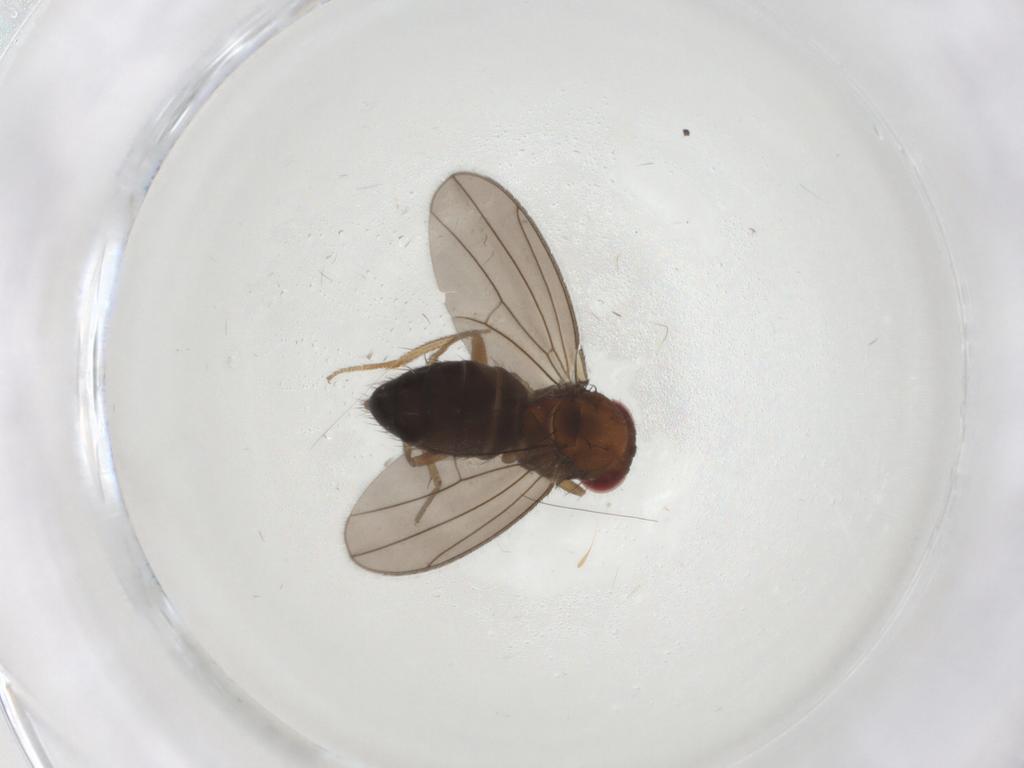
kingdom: Animalia
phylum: Arthropoda
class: Insecta
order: Diptera
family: Drosophilidae
